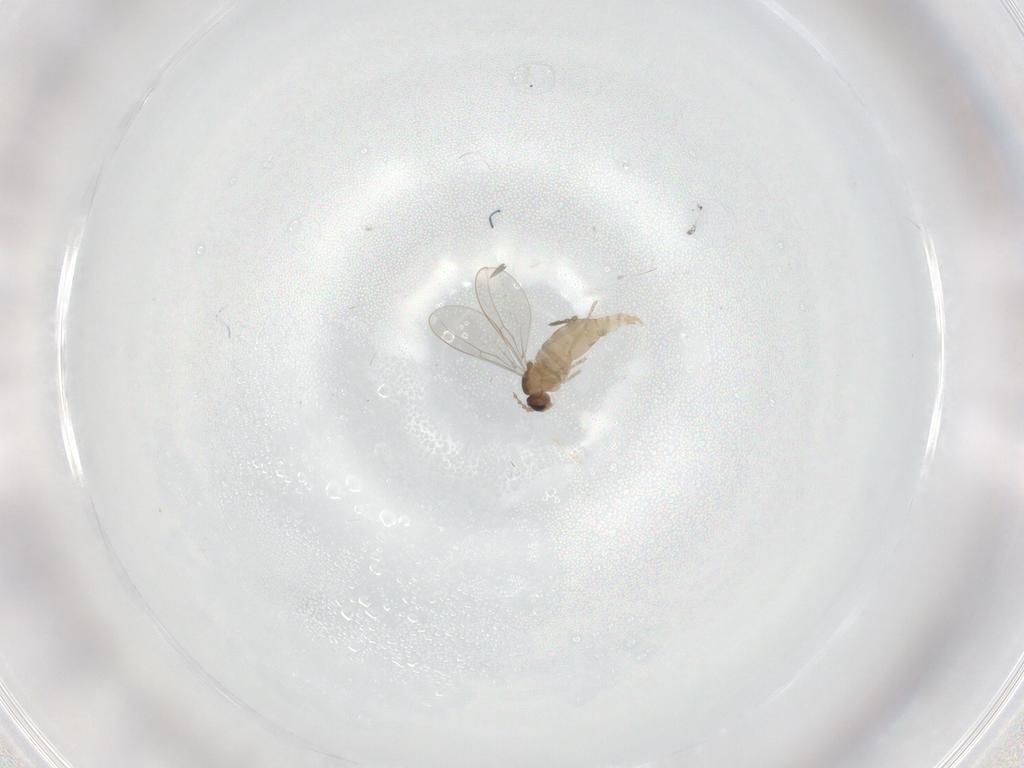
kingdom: Animalia
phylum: Arthropoda
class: Insecta
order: Diptera
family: Cecidomyiidae
